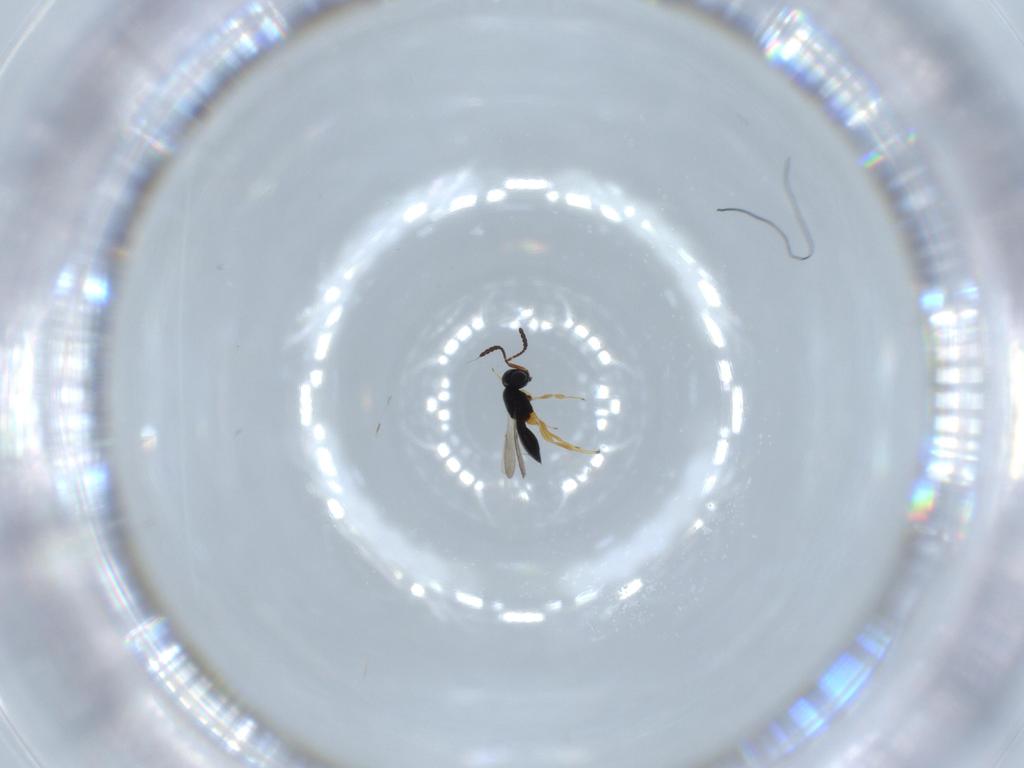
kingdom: Animalia
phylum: Arthropoda
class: Insecta
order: Hymenoptera
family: Scelionidae
